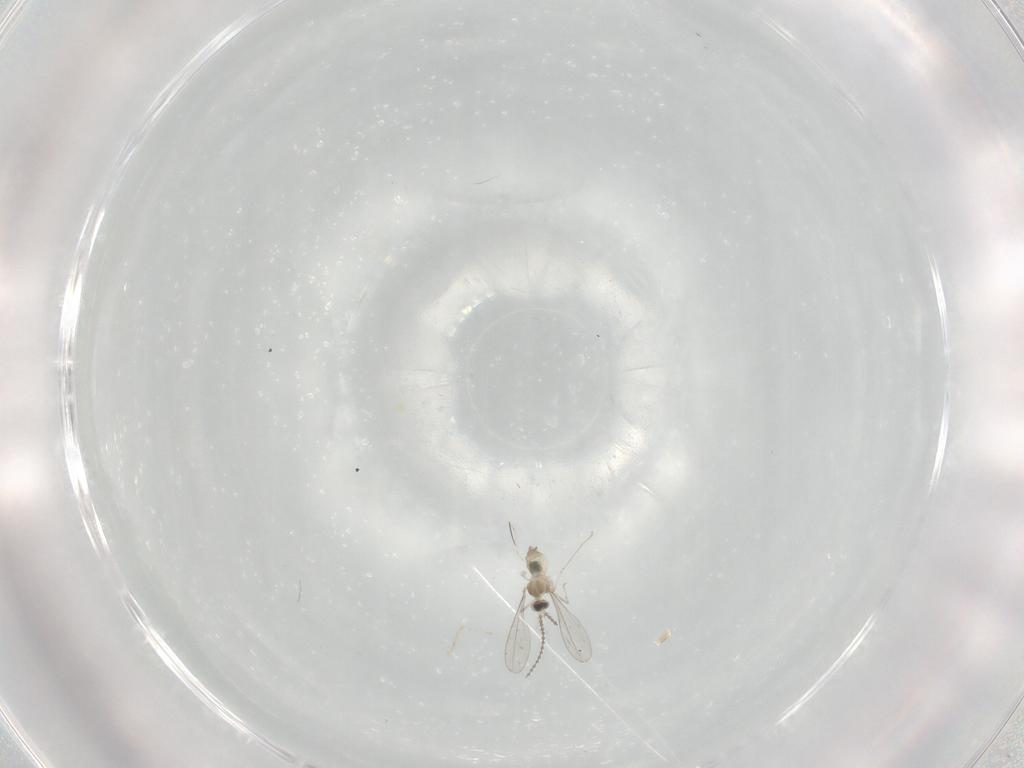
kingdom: Animalia
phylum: Arthropoda
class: Insecta
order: Diptera
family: Cecidomyiidae
